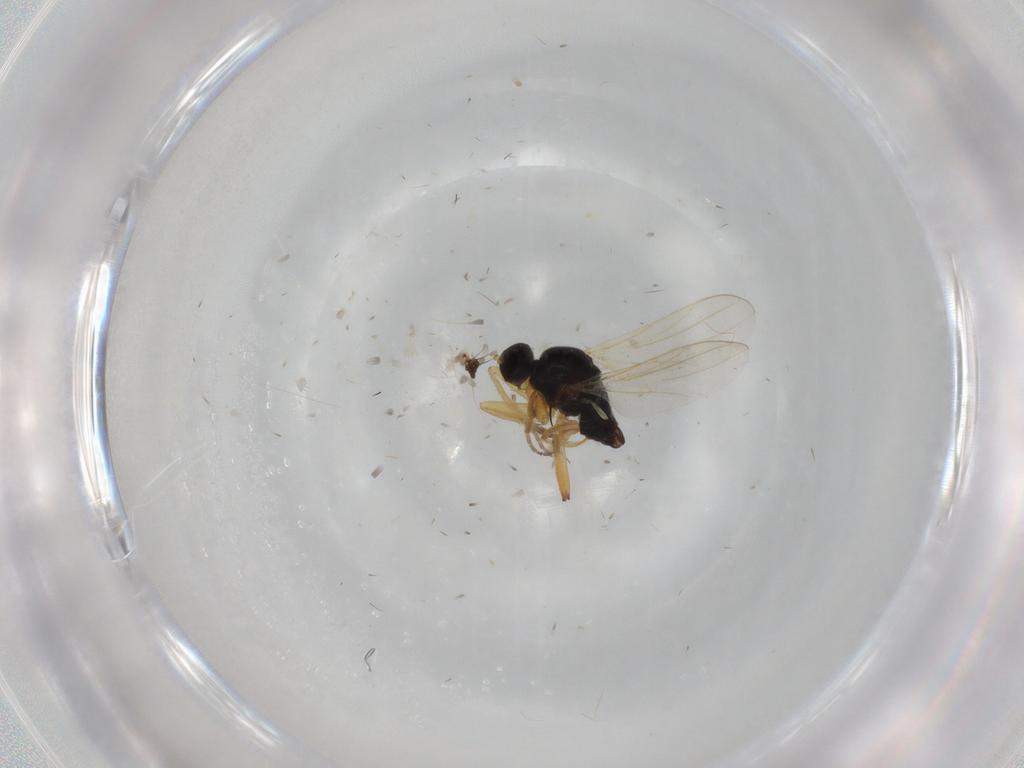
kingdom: Animalia
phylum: Arthropoda
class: Insecta
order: Diptera
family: Hybotidae
